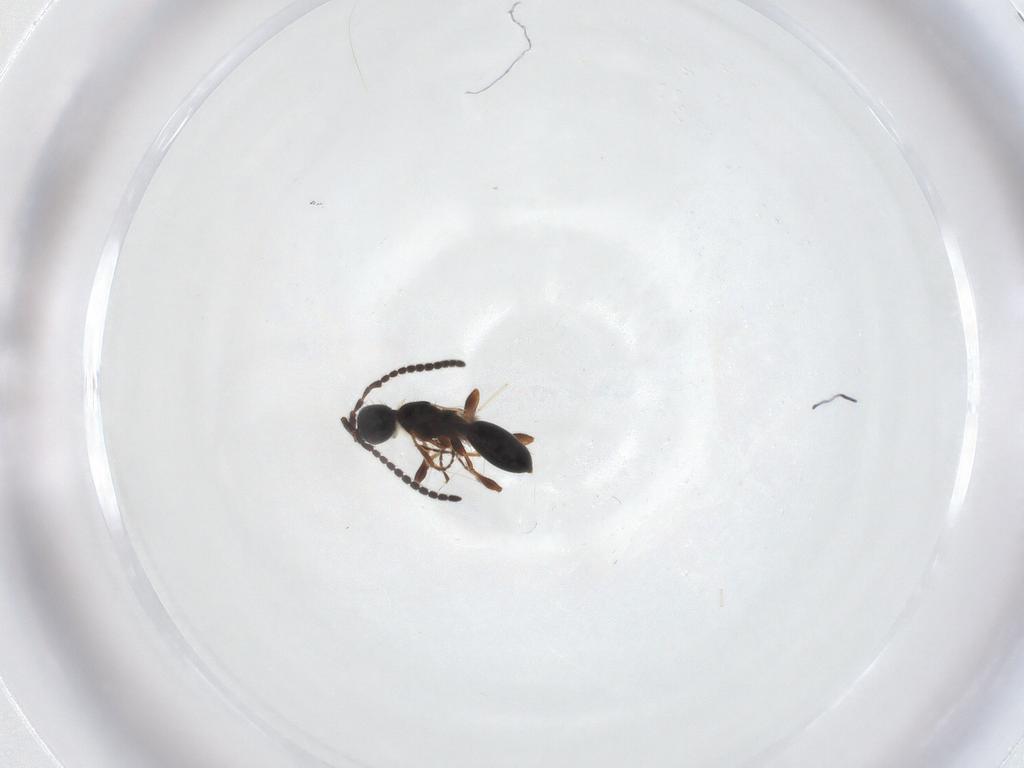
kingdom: Animalia
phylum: Arthropoda
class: Insecta
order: Hymenoptera
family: Diapriidae
